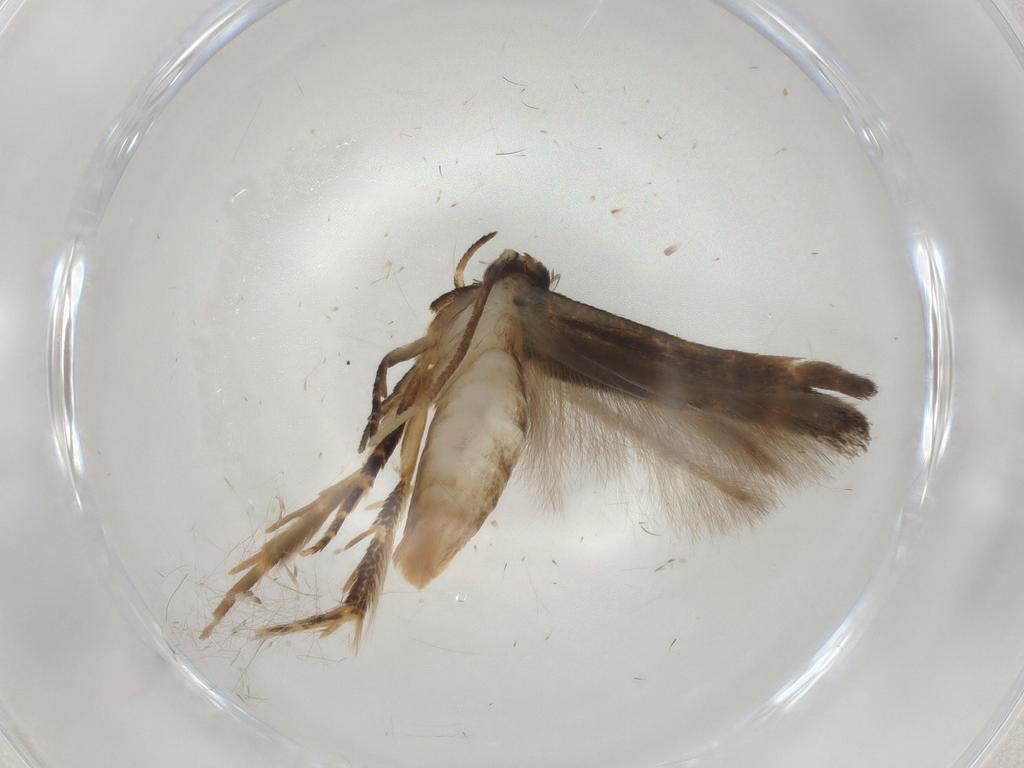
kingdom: Animalia
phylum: Arthropoda
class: Insecta
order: Lepidoptera
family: Cosmopterigidae
